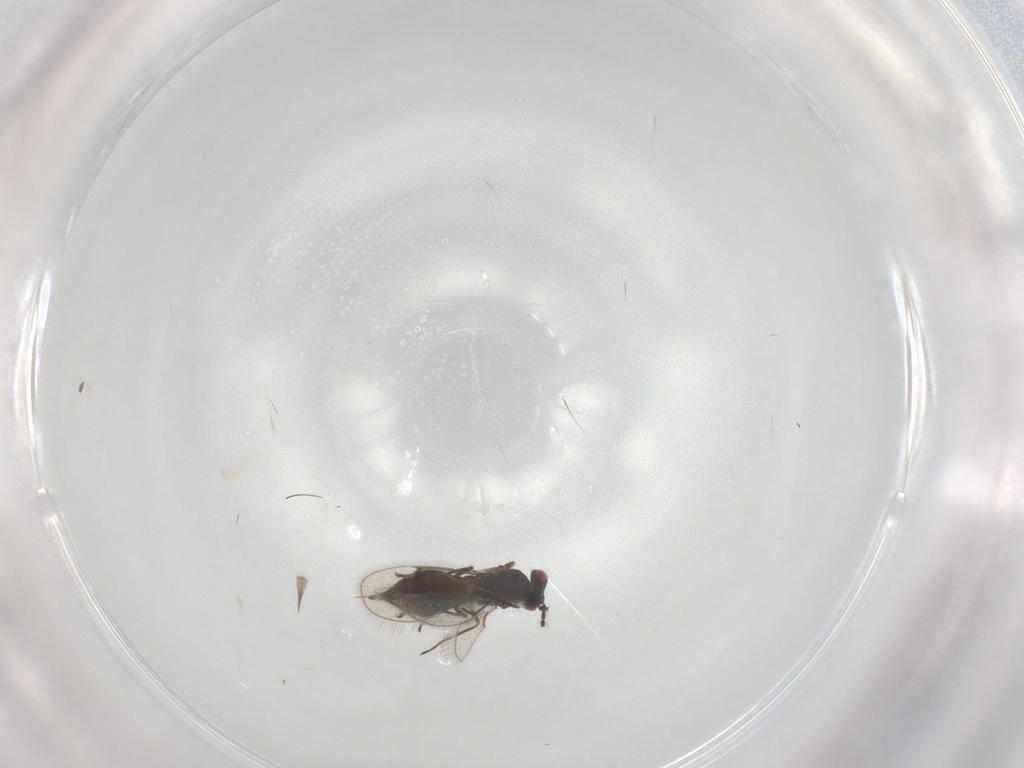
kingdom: Animalia
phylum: Arthropoda
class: Insecta
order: Hymenoptera
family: Eulophidae
